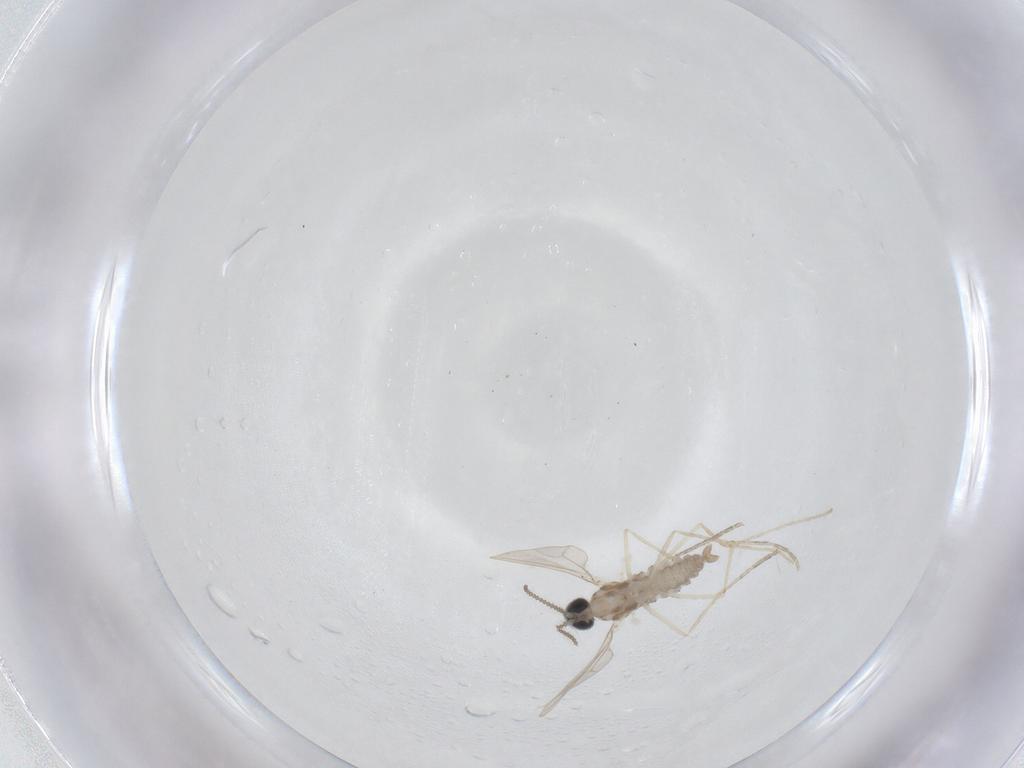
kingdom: Animalia
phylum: Arthropoda
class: Insecta
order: Diptera
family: Cecidomyiidae
